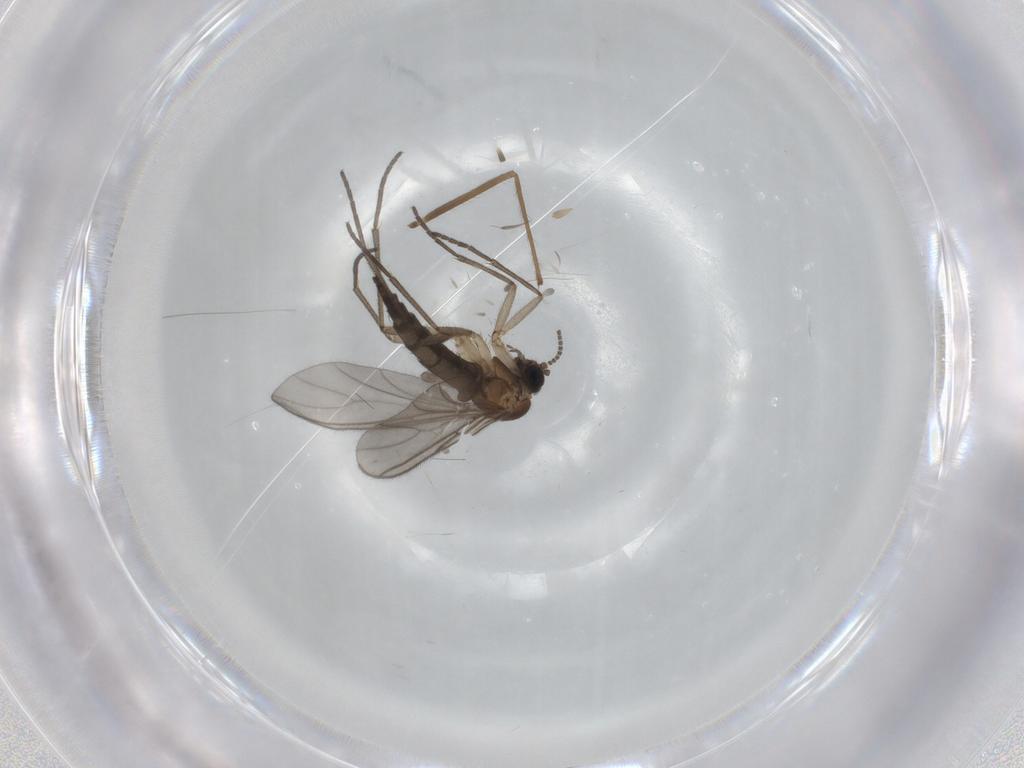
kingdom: Animalia
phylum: Arthropoda
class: Insecta
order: Diptera
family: Sciaridae
